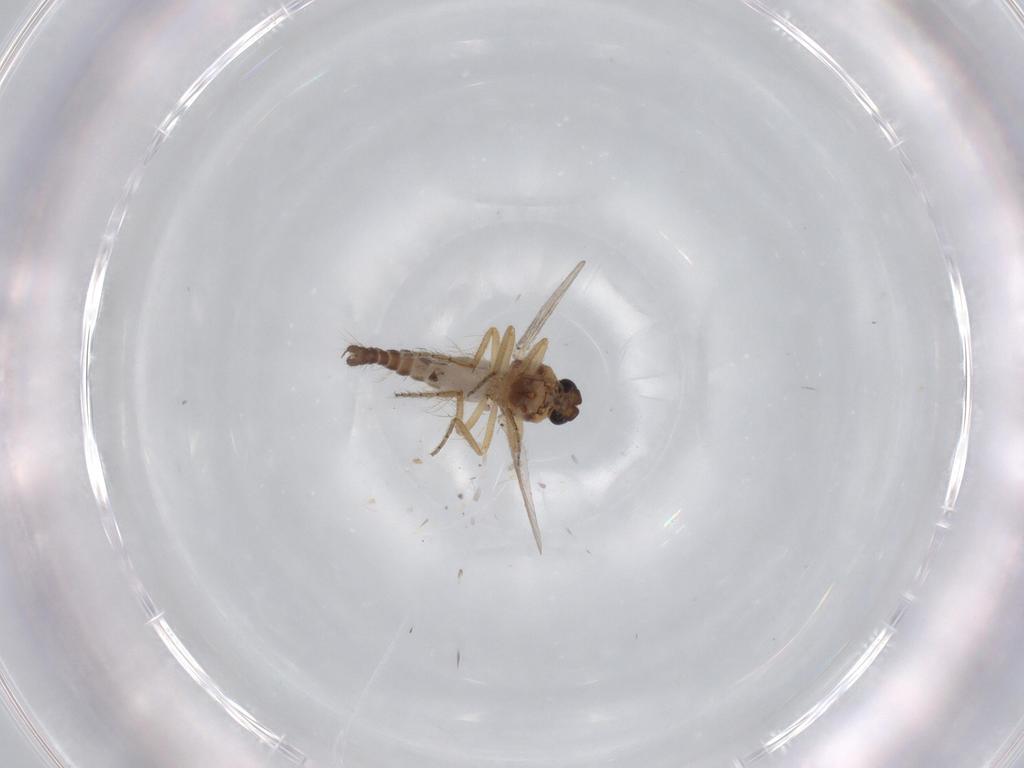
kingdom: Animalia
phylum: Arthropoda
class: Insecta
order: Diptera
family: Ceratopogonidae
